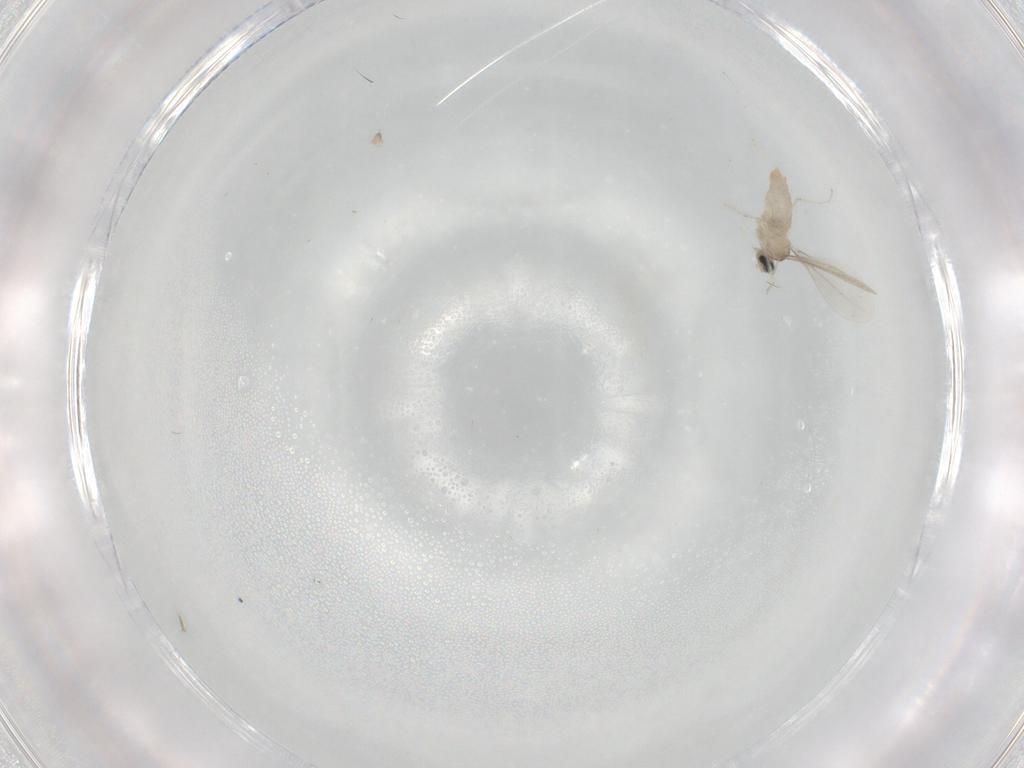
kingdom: Animalia
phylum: Arthropoda
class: Insecta
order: Diptera
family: Cecidomyiidae
